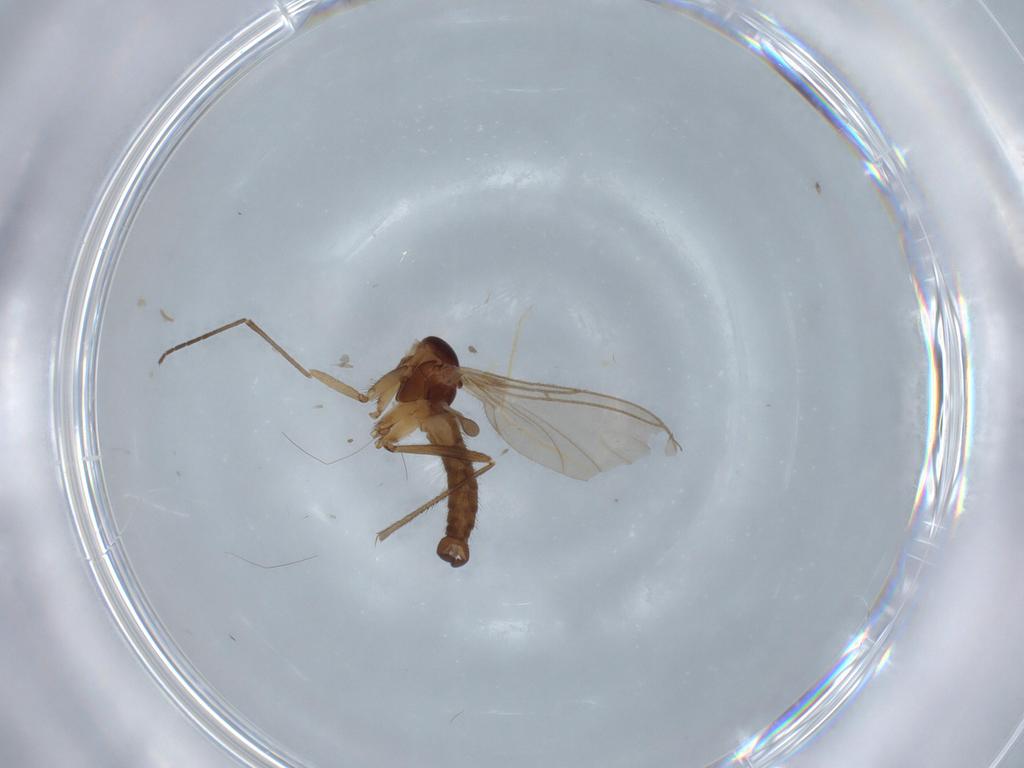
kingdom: Animalia
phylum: Arthropoda
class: Insecta
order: Diptera
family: Sciaridae
